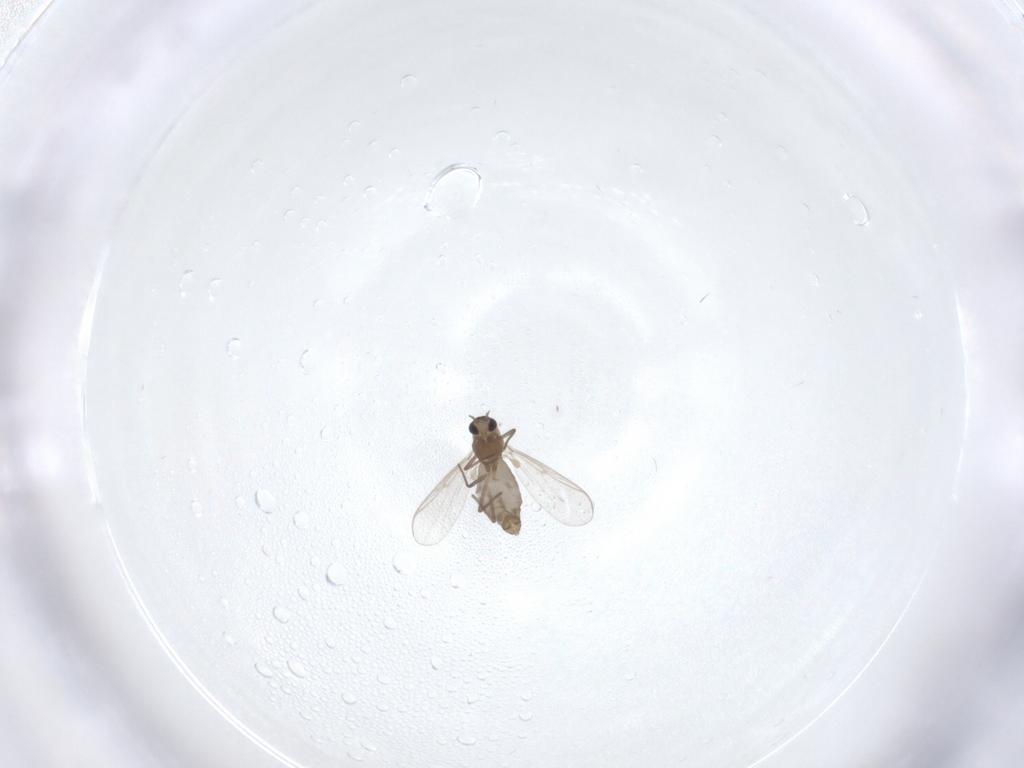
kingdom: Animalia
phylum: Arthropoda
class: Insecta
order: Diptera
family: Chironomidae
